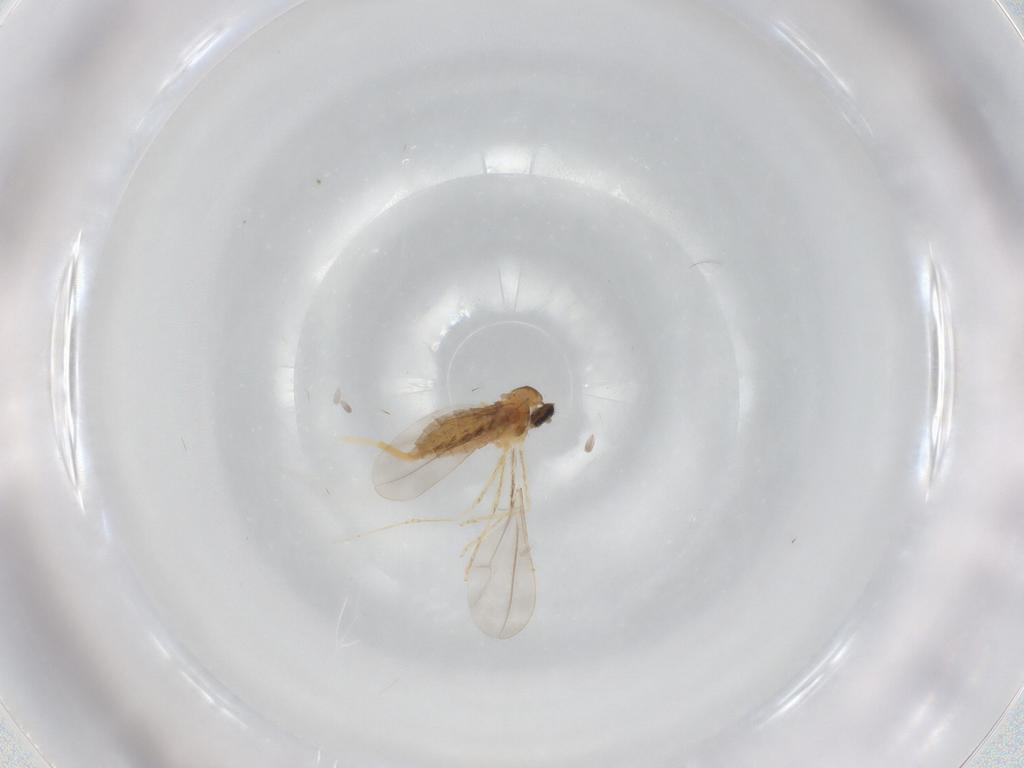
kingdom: Animalia
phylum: Arthropoda
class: Insecta
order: Diptera
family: Cecidomyiidae
